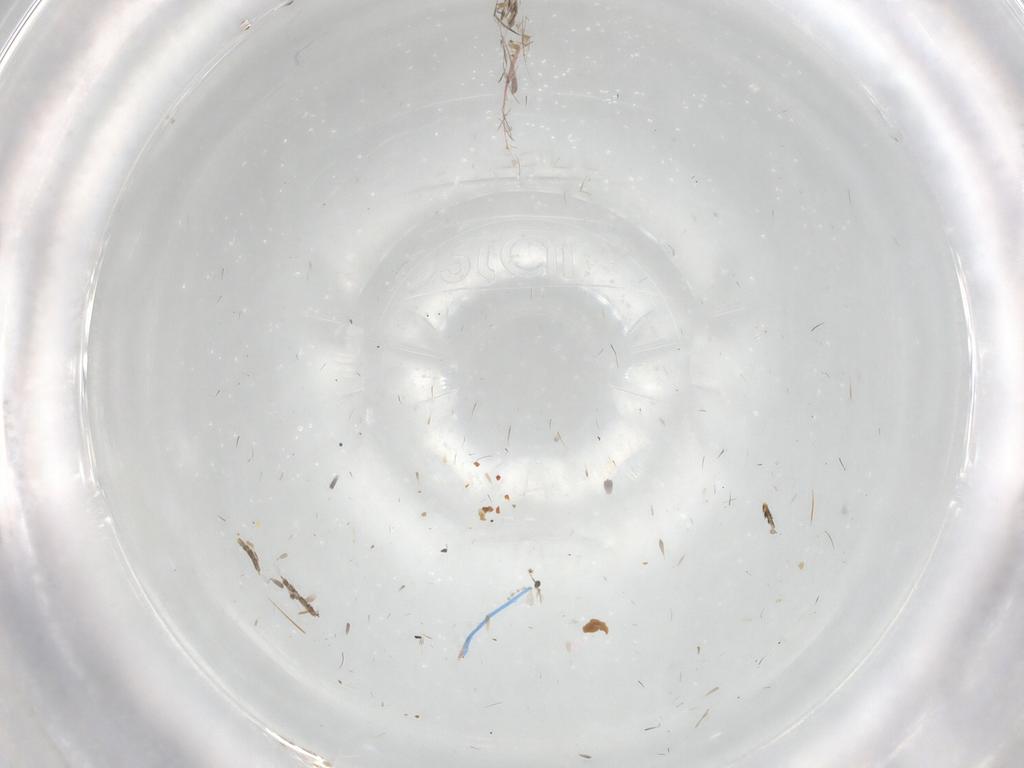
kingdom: Animalia
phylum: Arthropoda
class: Insecta
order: Diptera
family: Phoridae
